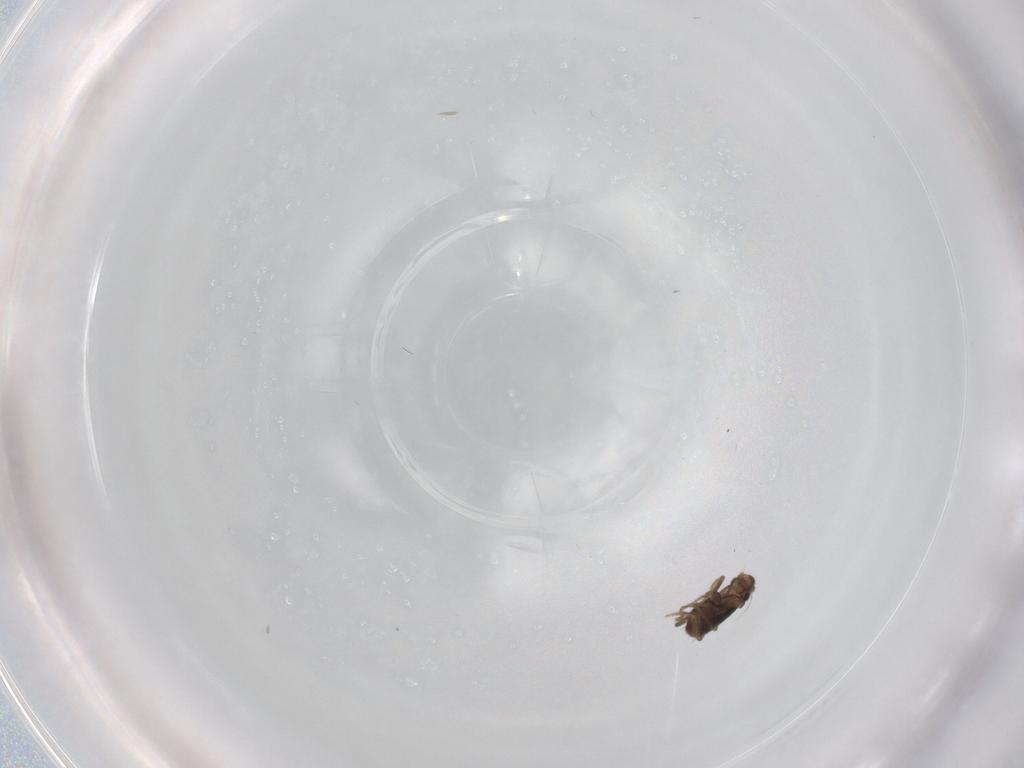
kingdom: Animalia
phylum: Arthropoda
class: Insecta
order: Diptera
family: Phoridae
